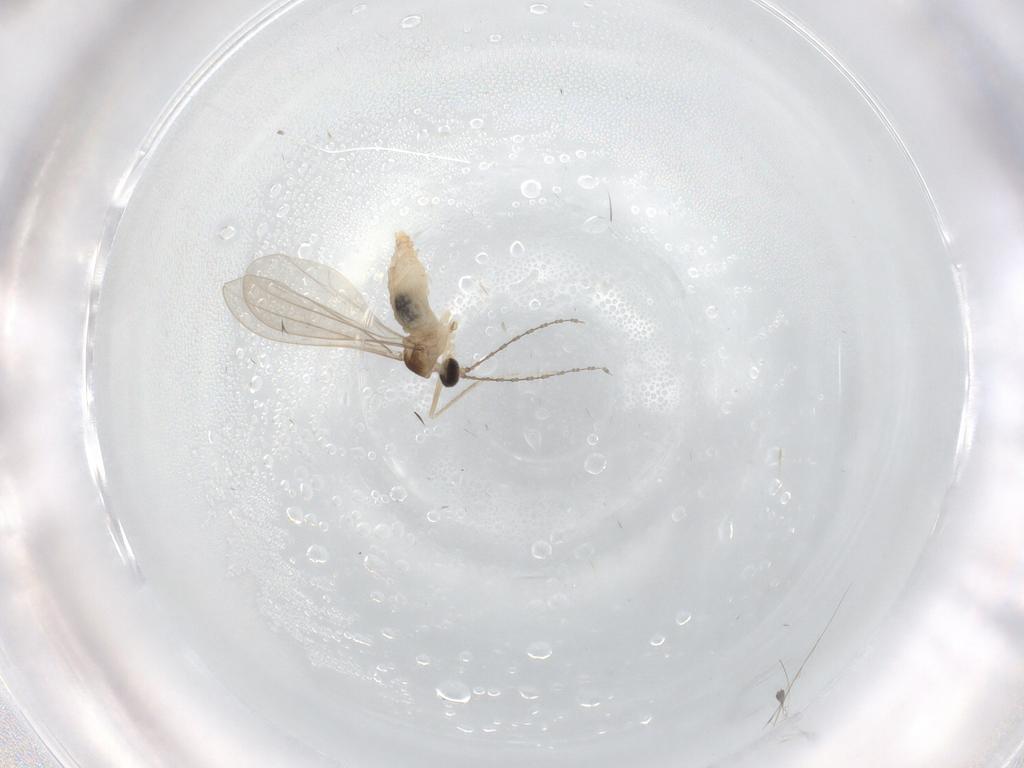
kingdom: Animalia
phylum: Arthropoda
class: Insecta
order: Diptera
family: Cecidomyiidae
